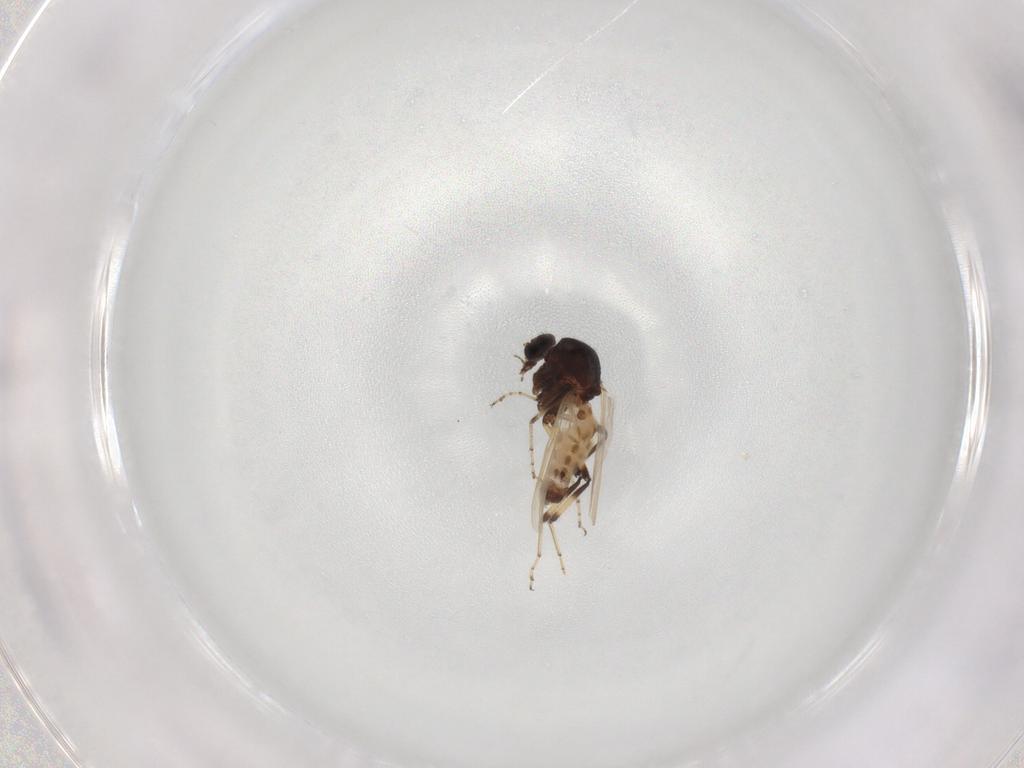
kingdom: Animalia
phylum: Arthropoda
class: Insecta
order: Diptera
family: Ceratopogonidae
